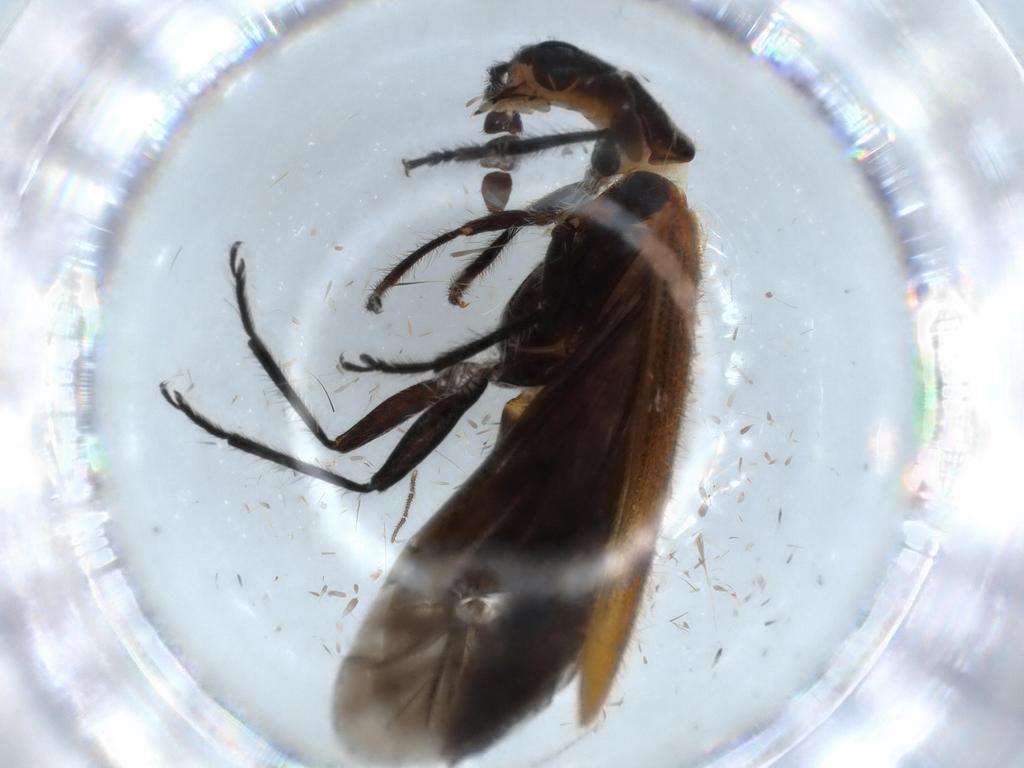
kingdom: Animalia
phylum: Arthropoda
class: Insecta
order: Coleoptera
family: Cleridae
